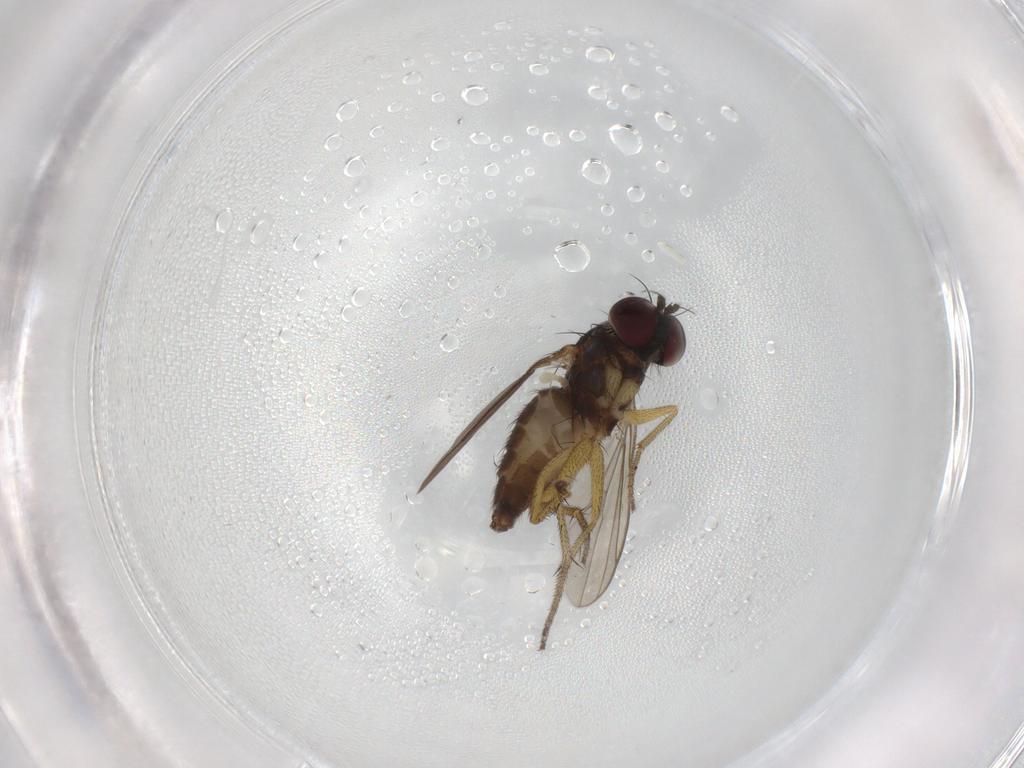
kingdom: Animalia
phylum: Arthropoda
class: Insecta
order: Diptera
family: Dolichopodidae
